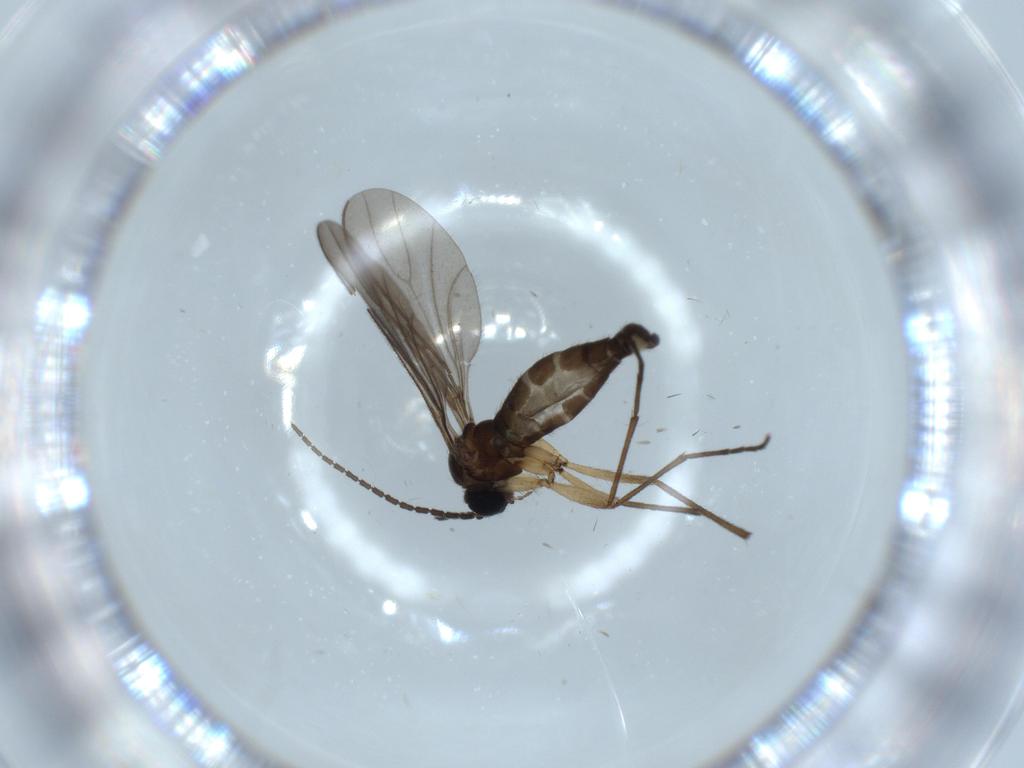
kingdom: Animalia
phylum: Arthropoda
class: Insecta
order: Diptera
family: Sciaridae
